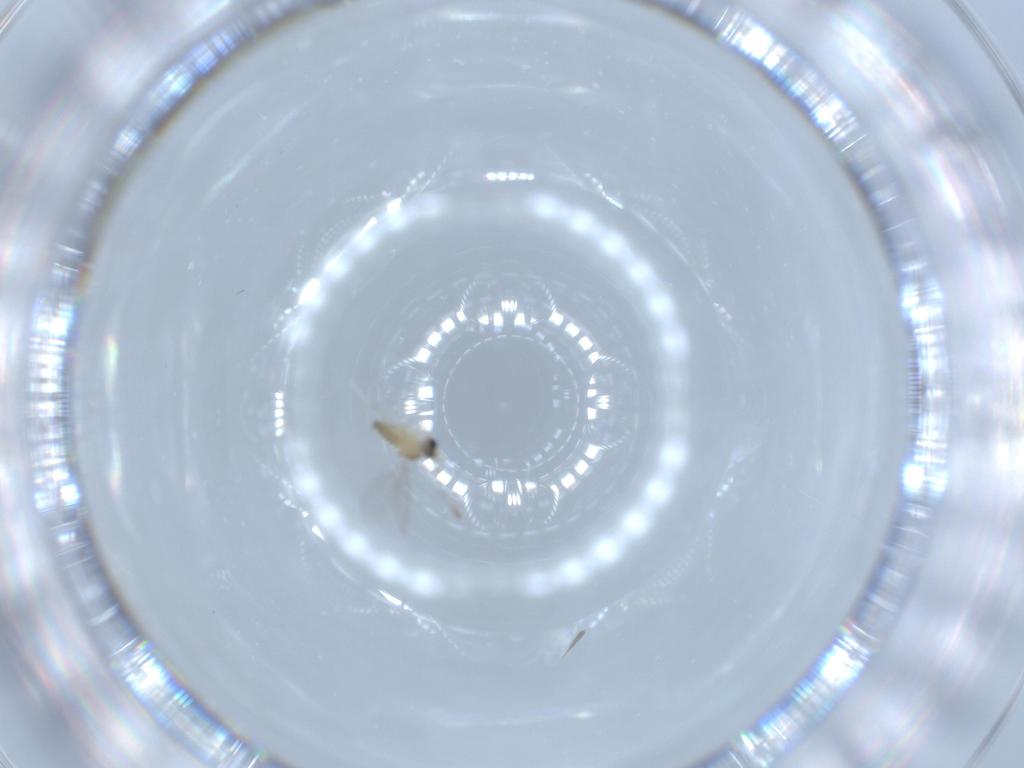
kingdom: Animalia
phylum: Arthropoda
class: Insecta
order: Diptera
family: Cecidomyiidae
